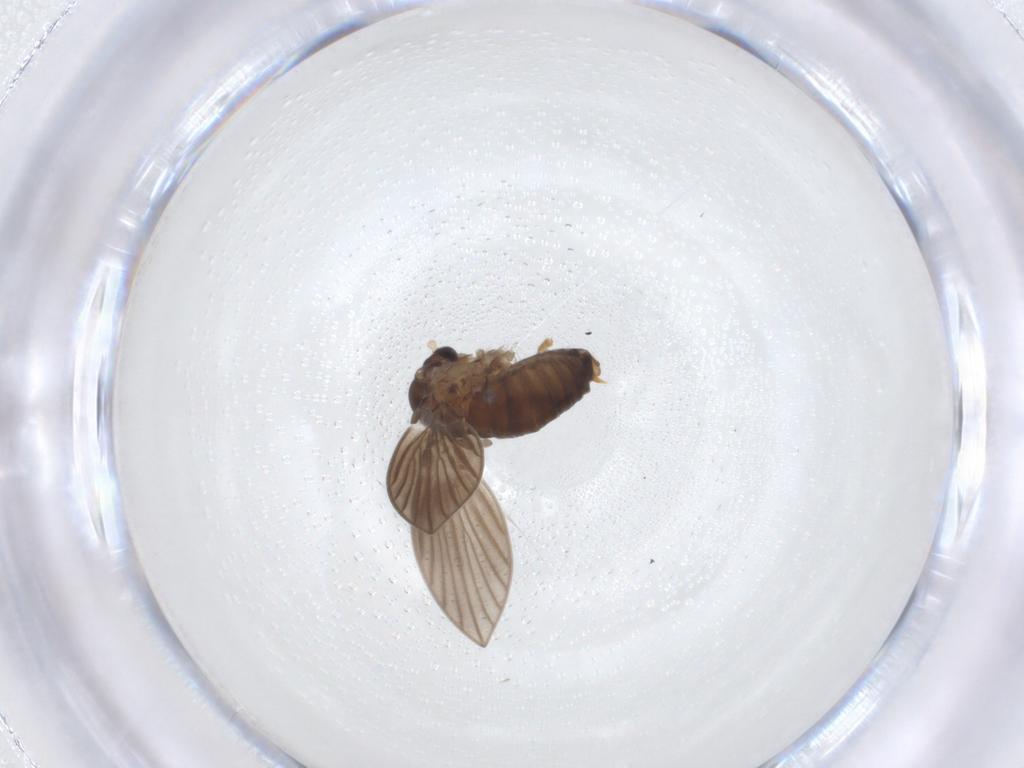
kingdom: Animalia
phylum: Arthropoda
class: Insecta
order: Diptera
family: Psychodidae
